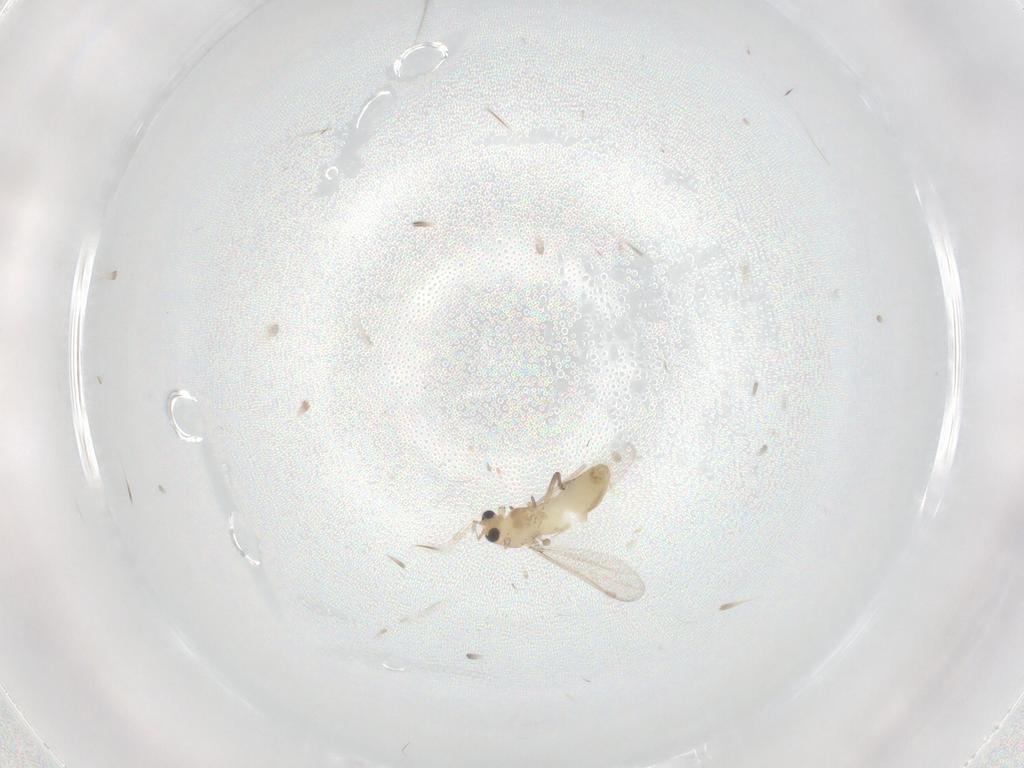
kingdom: Animalia
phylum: Arthropoda
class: Insecta
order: Diptera
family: Chironomidae
